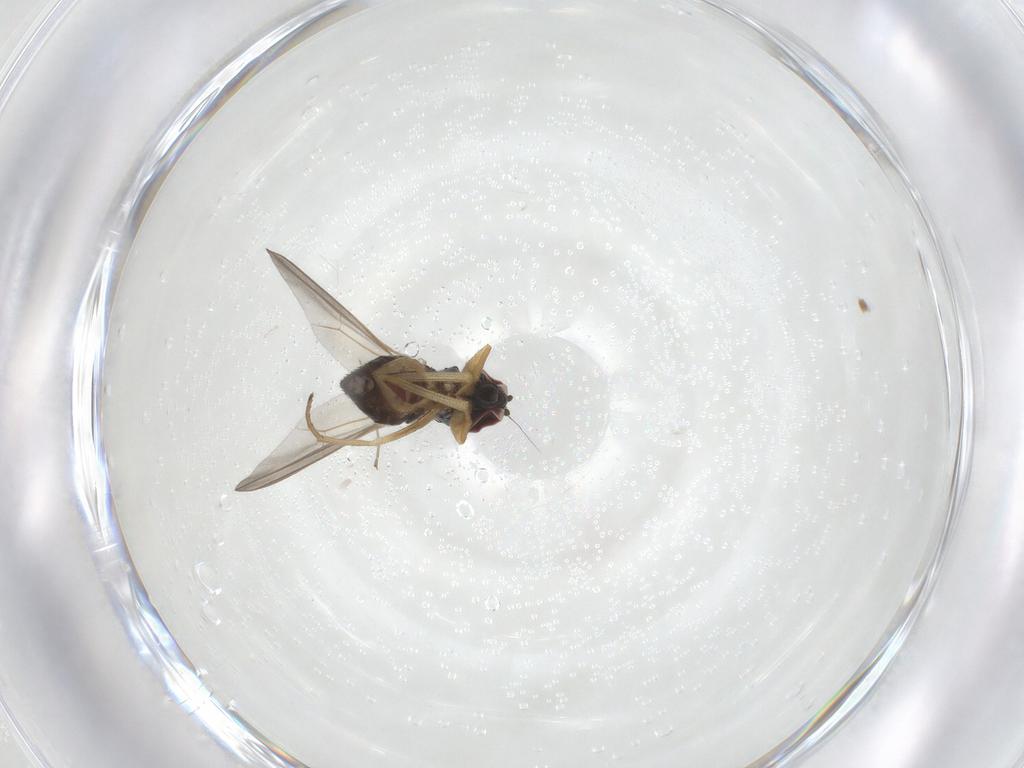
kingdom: Animalia
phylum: Arthropoda
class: Insecta
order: Diptera
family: Dolichopodidae
